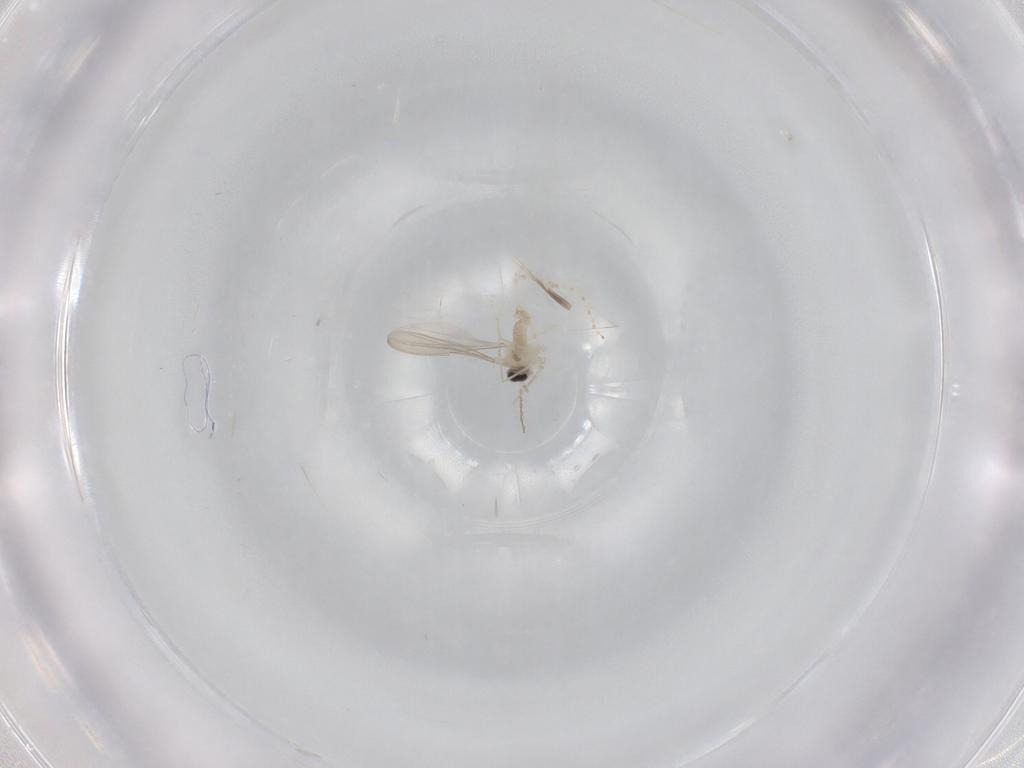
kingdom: Animalia
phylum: Arthropoda
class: Insecta
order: Diptera
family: Cecidomyiidae
